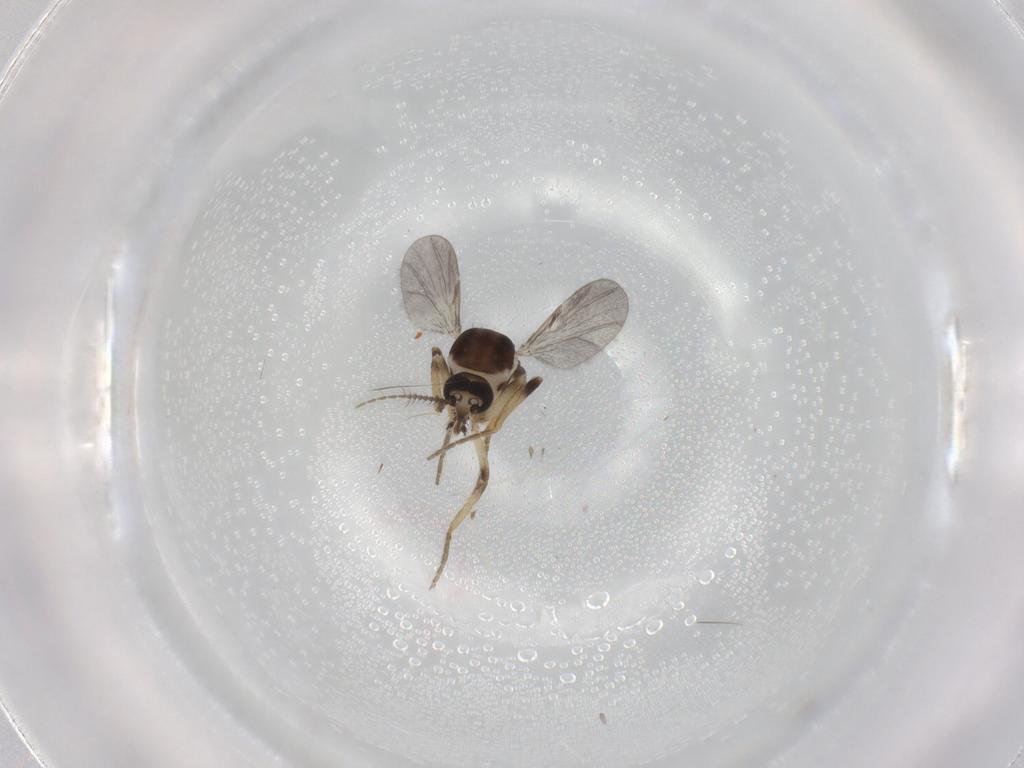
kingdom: Animalia
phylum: Arthropoda
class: Insecta
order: Diptera
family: Ceratopogonidae
